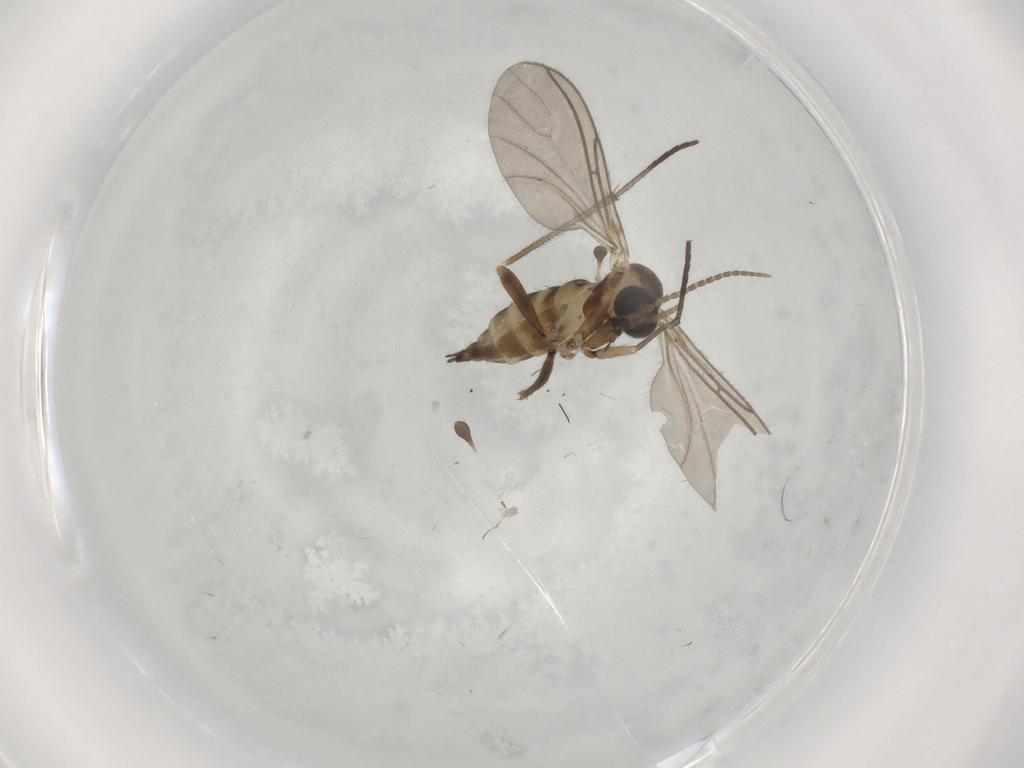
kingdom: Animalia
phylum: Arthropoda
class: Insecta
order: Diptera
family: Sciaridae
